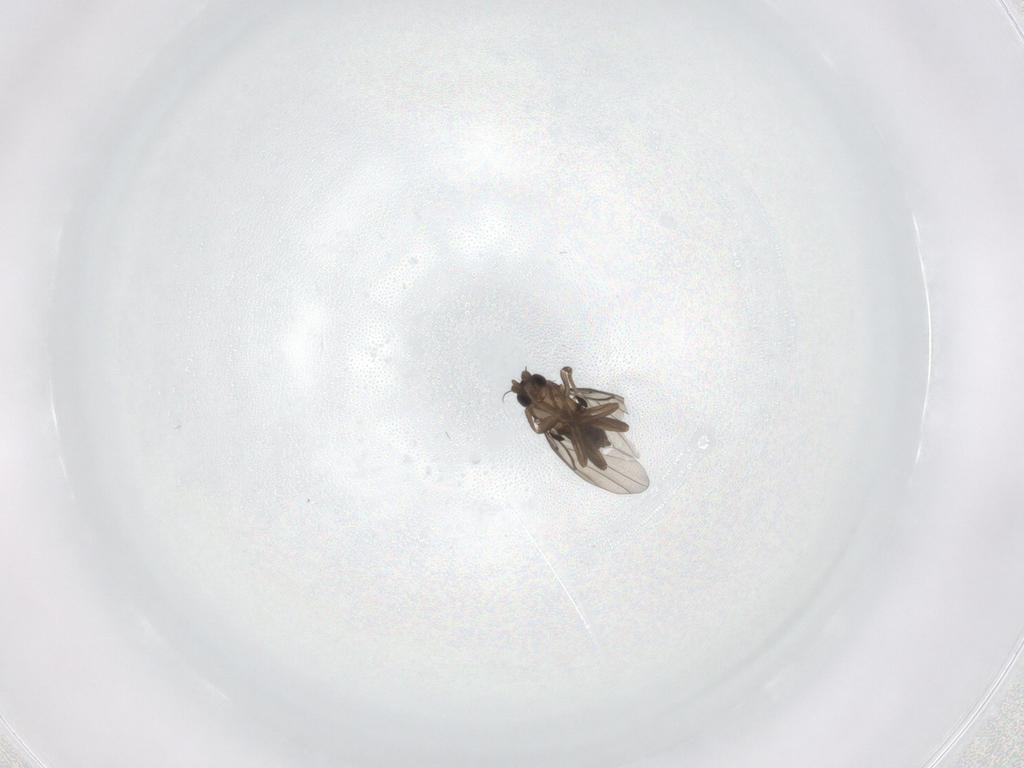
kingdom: Animalia
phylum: Arthropoda
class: Insecta
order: Diptera
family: Psychodidae
